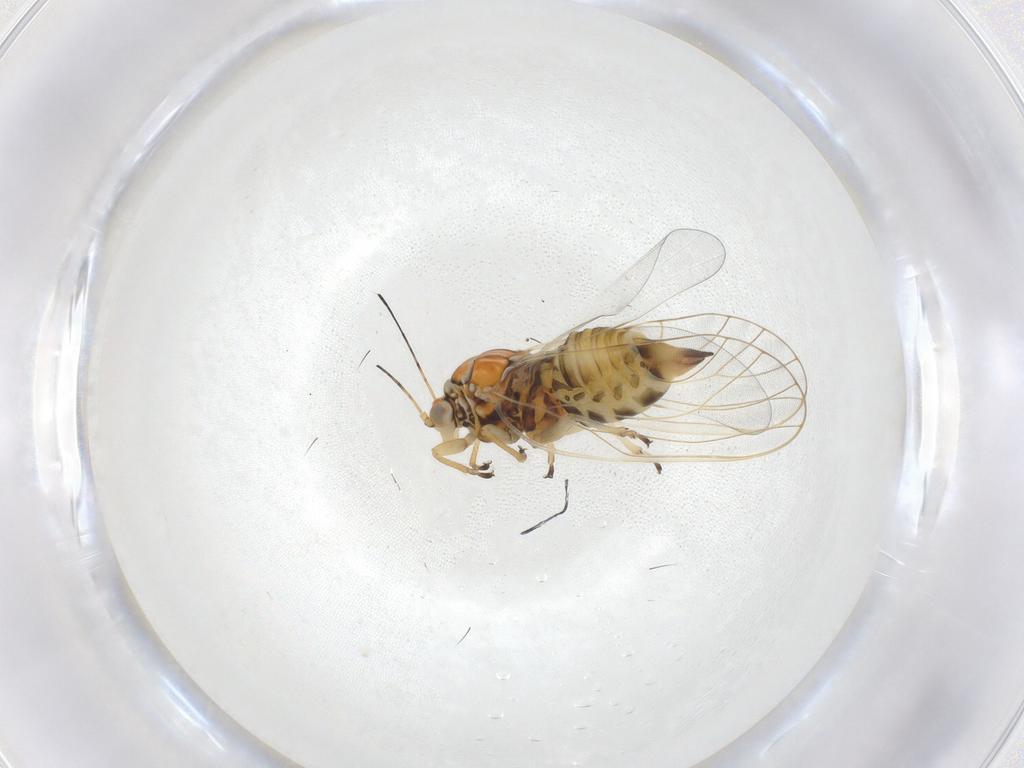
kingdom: Animalia
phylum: Arthropoda
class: Insecta
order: Hemiptera
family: Psyllidae
